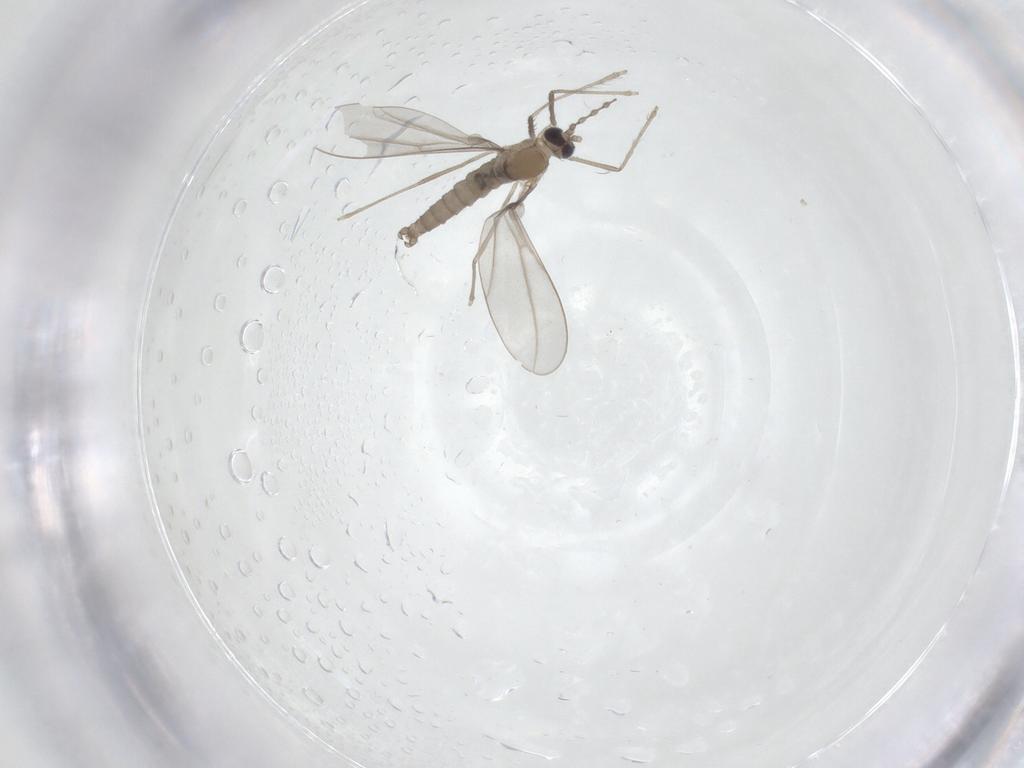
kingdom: Animalia
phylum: Arthropoda
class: Insecta
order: Diptera
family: Cecidomyiidae
